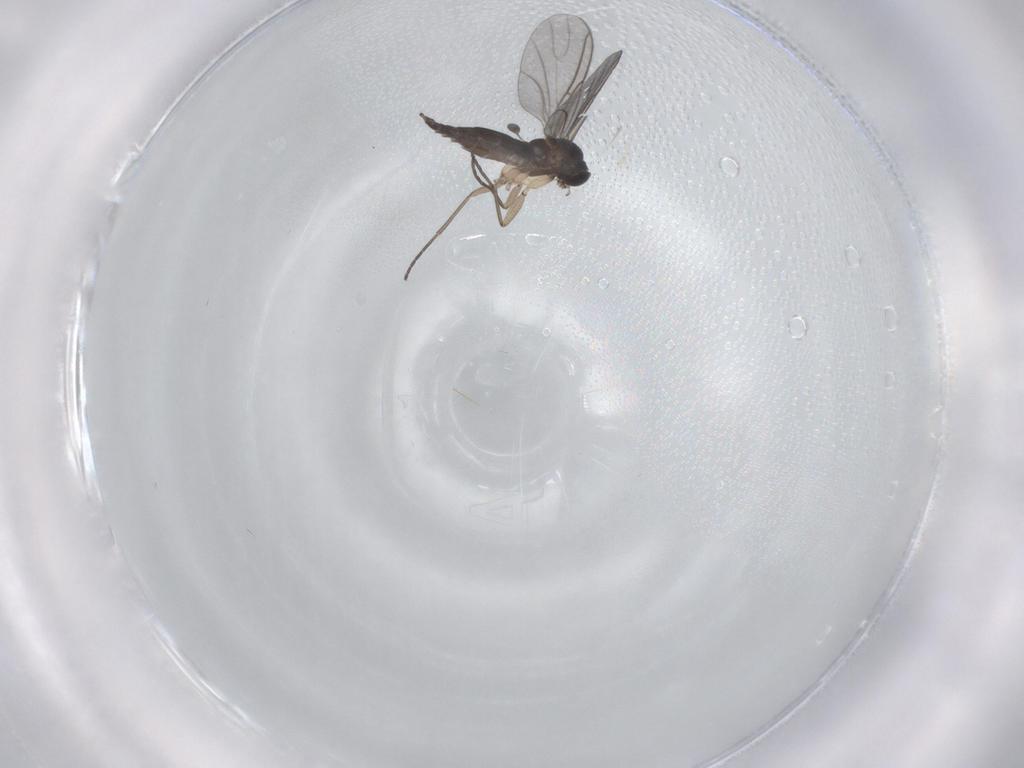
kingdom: Animalia
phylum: Arthropoda
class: Insecta
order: Diptera
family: Sciaridae
